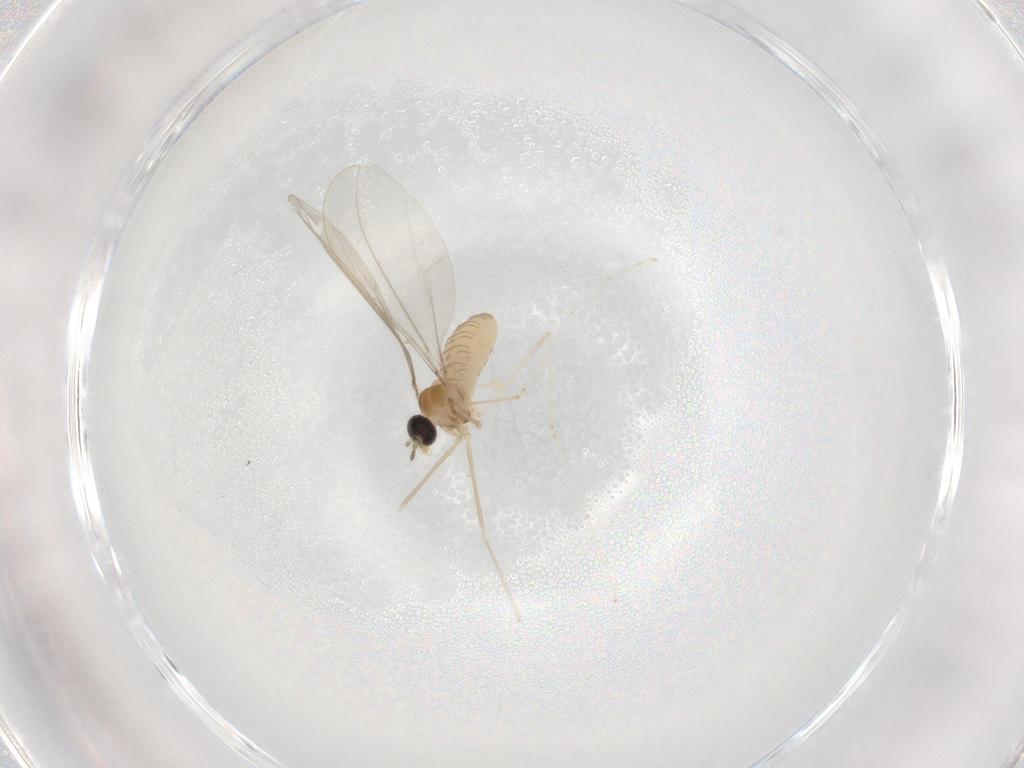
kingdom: Animalia
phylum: Arthropoda
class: Insecta
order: Diptera
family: Cecidomyiidae
